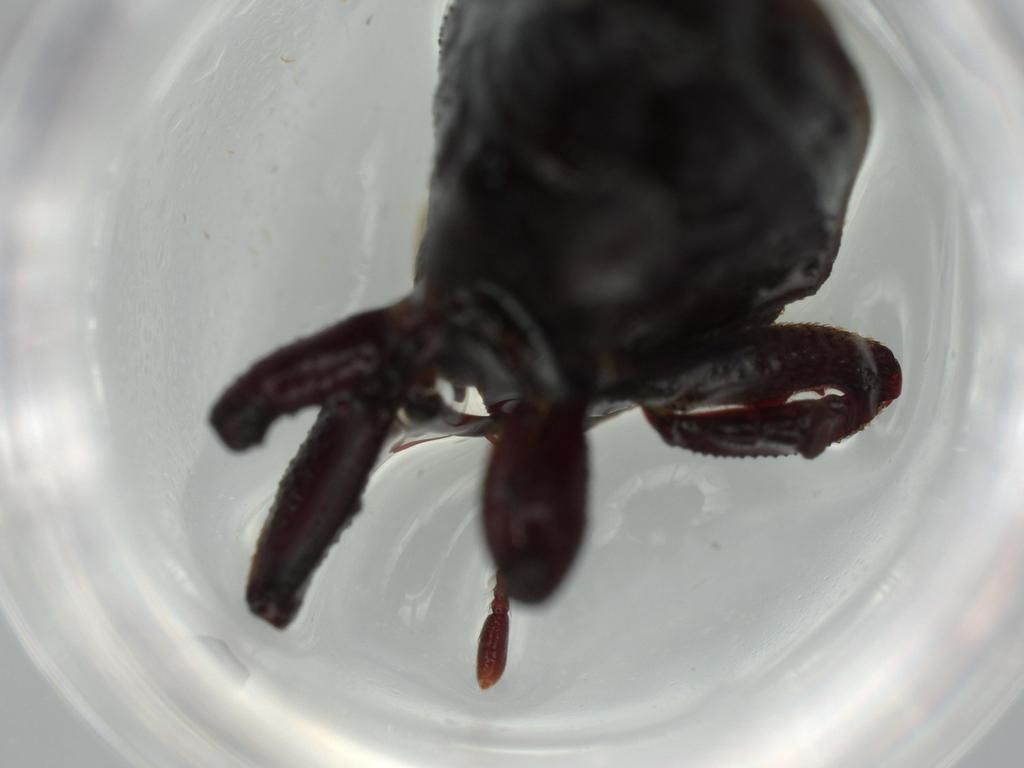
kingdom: Animalia
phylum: Arthropoda
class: Insecta
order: Coleoptera
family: Curculionidae
